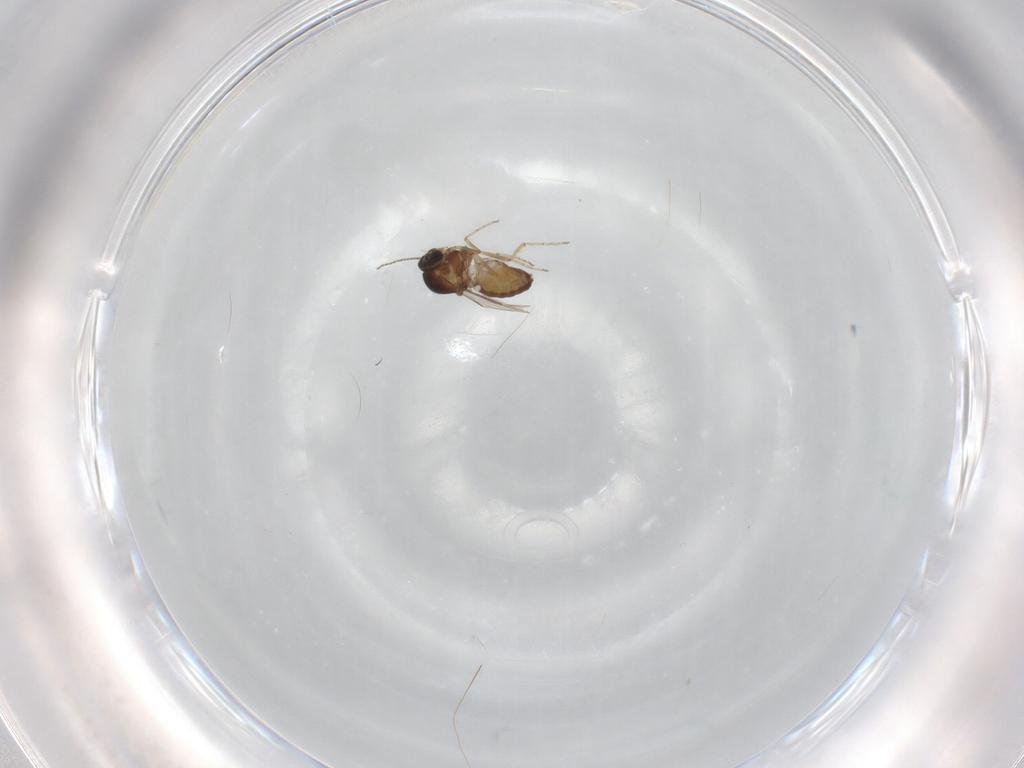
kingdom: Animalia
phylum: Arthropoda
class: Insecta
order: Diptera
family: Ceratopogonidae
